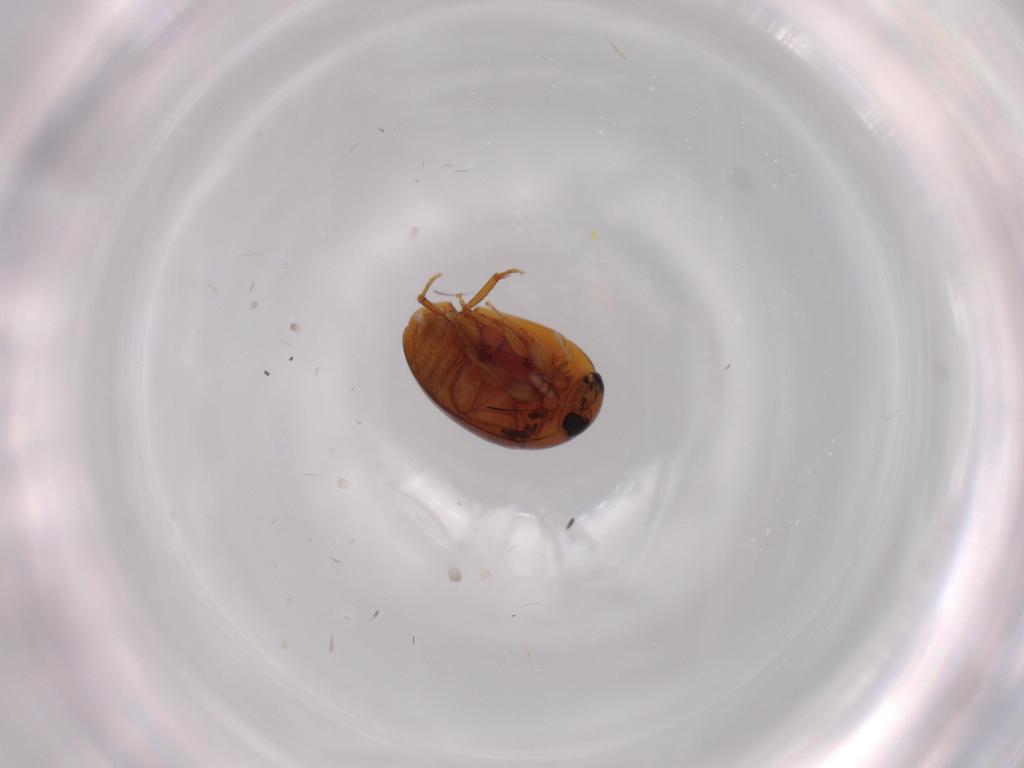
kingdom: Animalia
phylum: Arthropoda
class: Insecta
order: Coleoptera
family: Phalacridae
